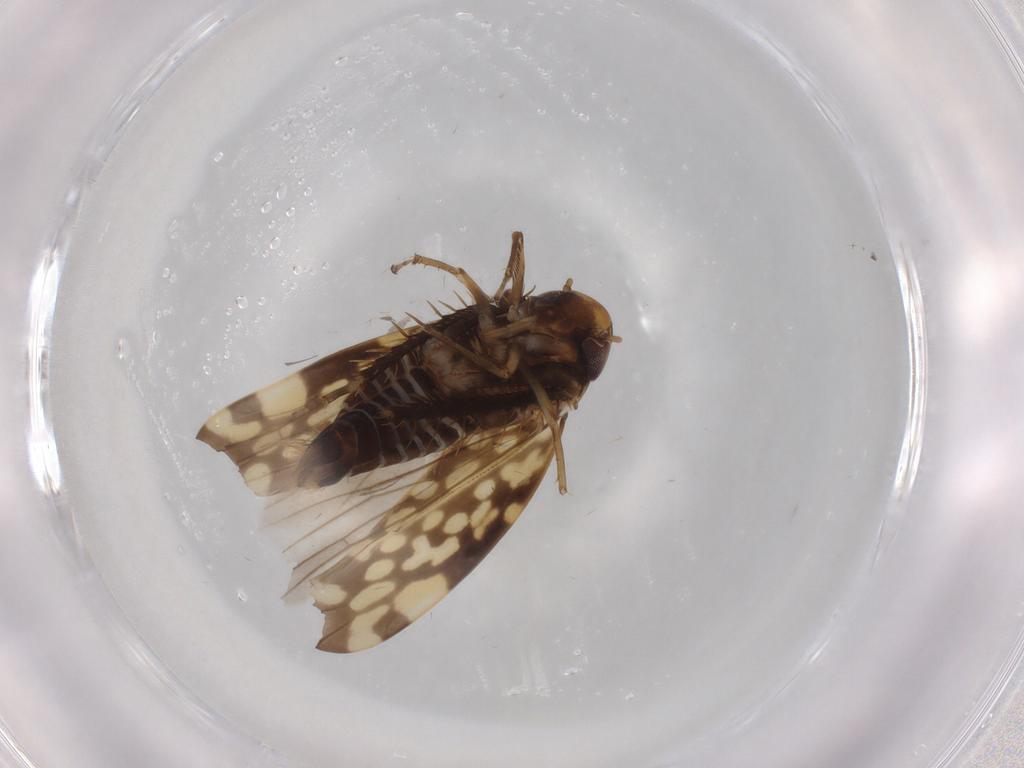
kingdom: Animalia
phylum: Arthropoda
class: Insecta
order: Hemiptera
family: Cicadellidae
